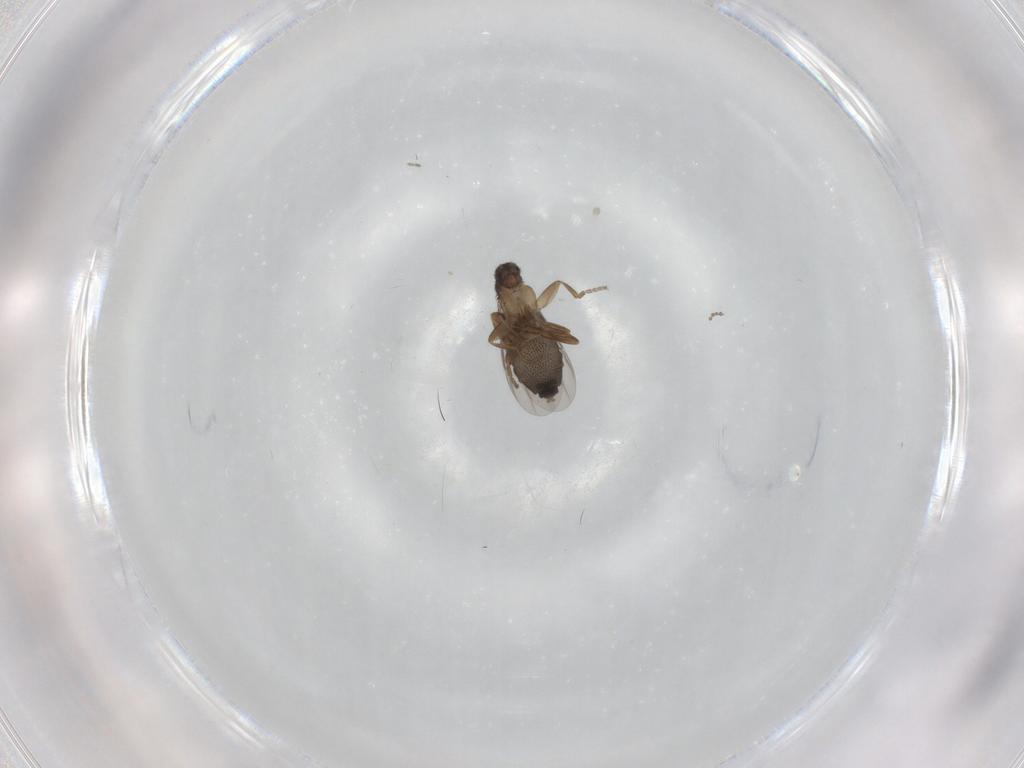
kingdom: Animalia
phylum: Arthropoda
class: Insecta
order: Diptera
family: Phoridae
